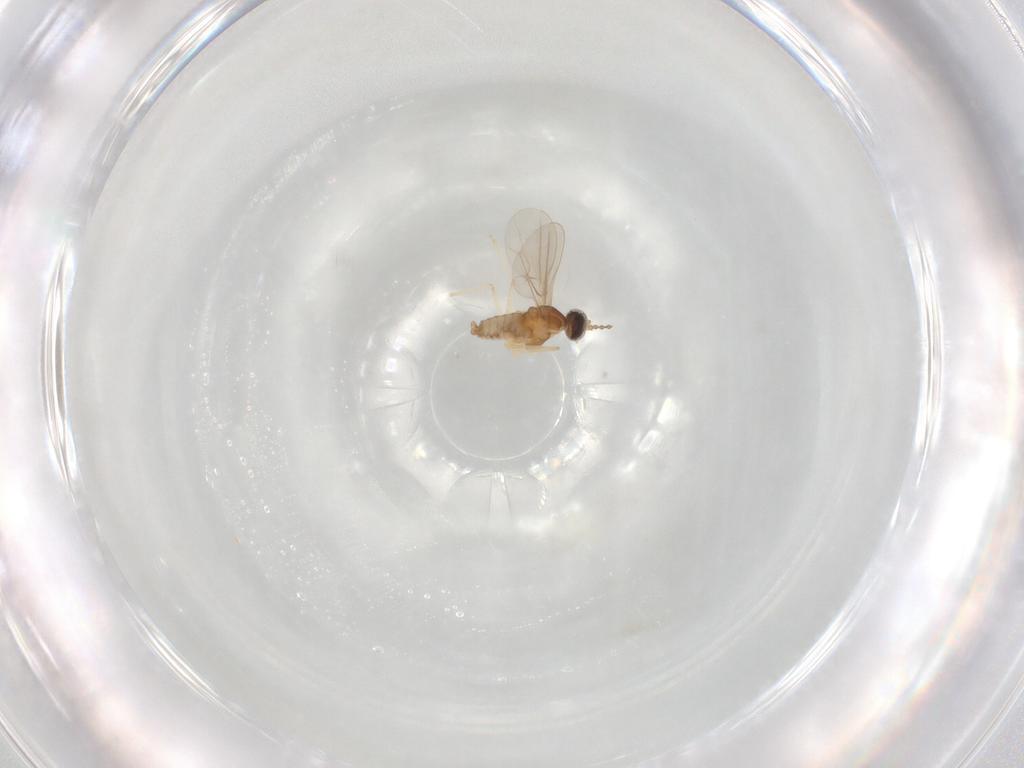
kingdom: Animalia
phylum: Arthropoda
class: Insecta
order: Diptera
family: Cecidomyiidae
